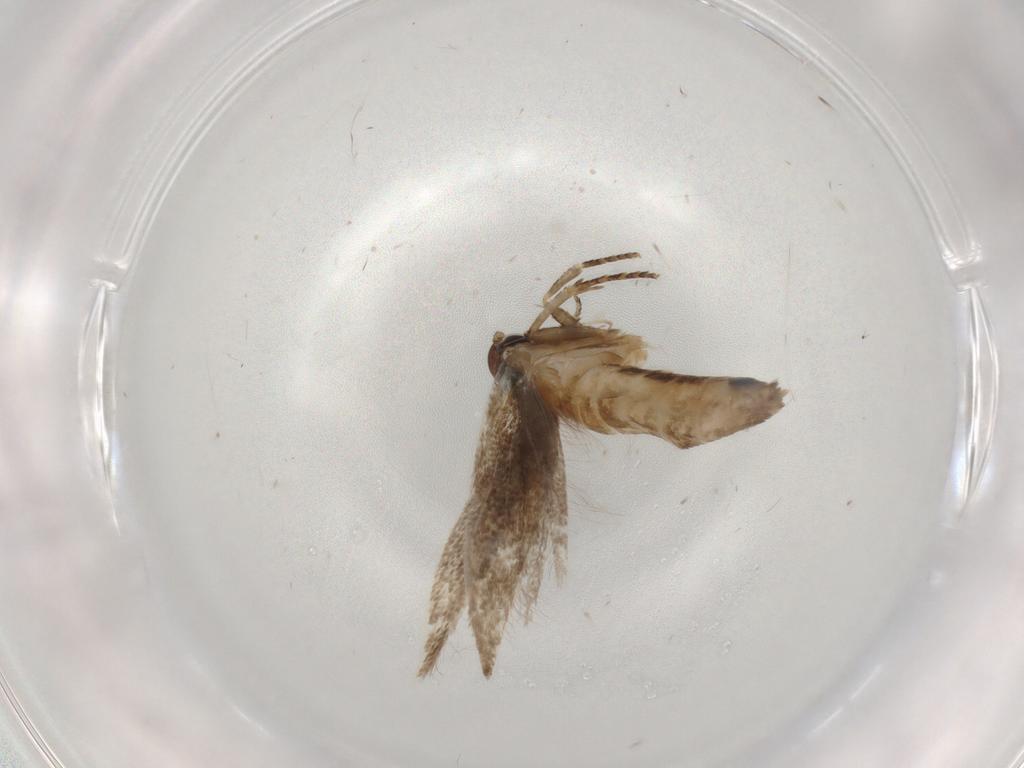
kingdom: Animalia
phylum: Arthropoda
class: Insecta
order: Lepidoptera
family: Cosmopterigidae
